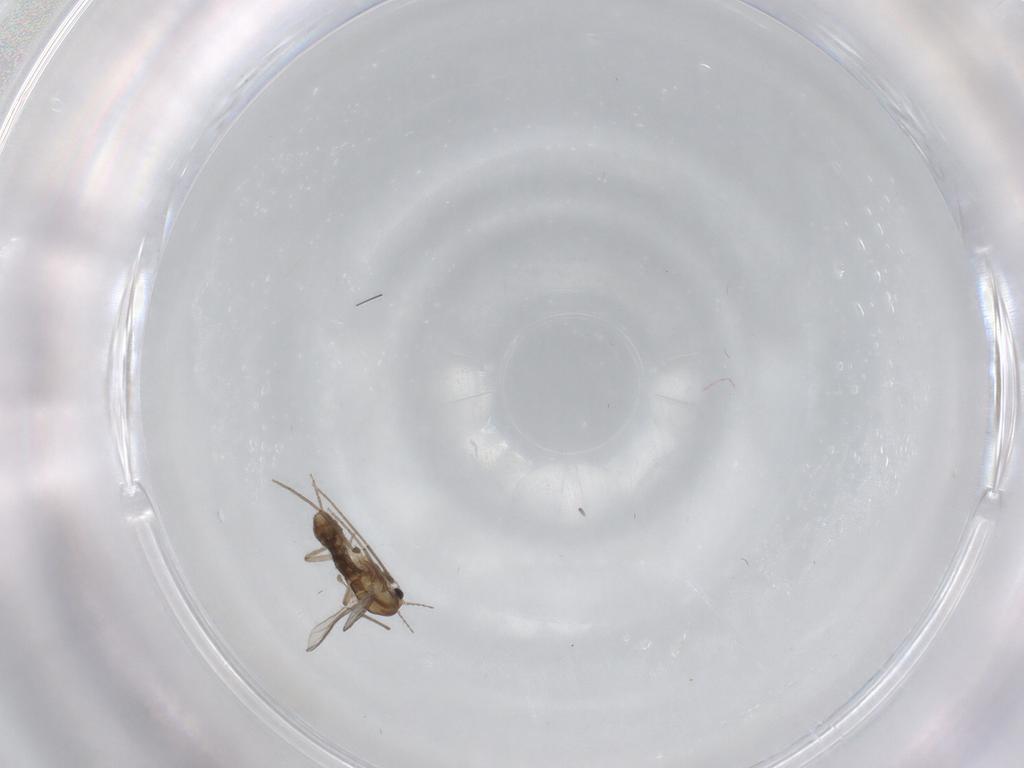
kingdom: Animalia
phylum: Arthropoda
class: Insecta
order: Diptera
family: Chironomidae
